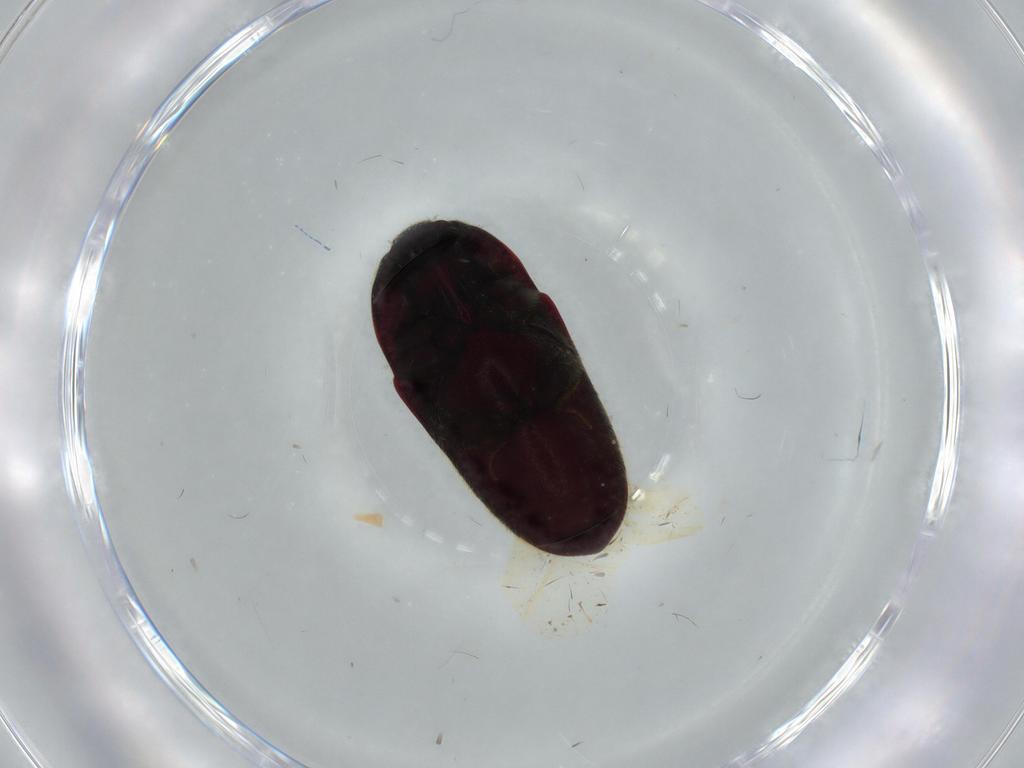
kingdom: Animalia
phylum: Arthropoda
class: Insecta
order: Coleoptera
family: Throscidae
